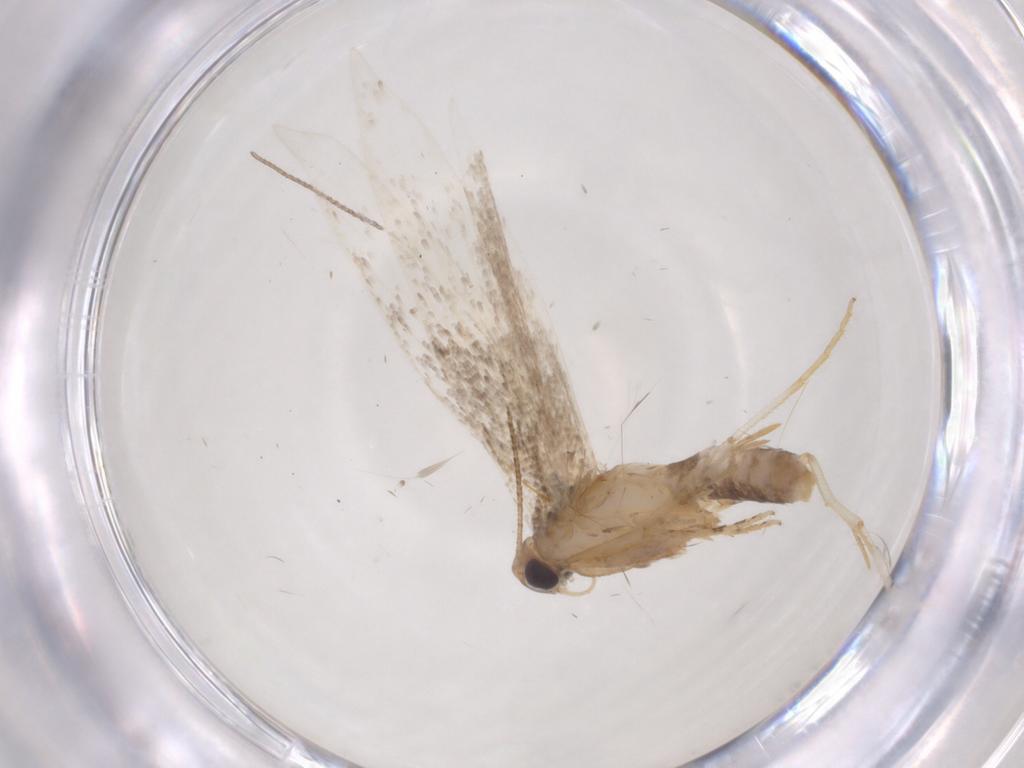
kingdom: Animalia
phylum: Arthropoda
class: Insecta
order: Lepidoptera
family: Gelechiidae
